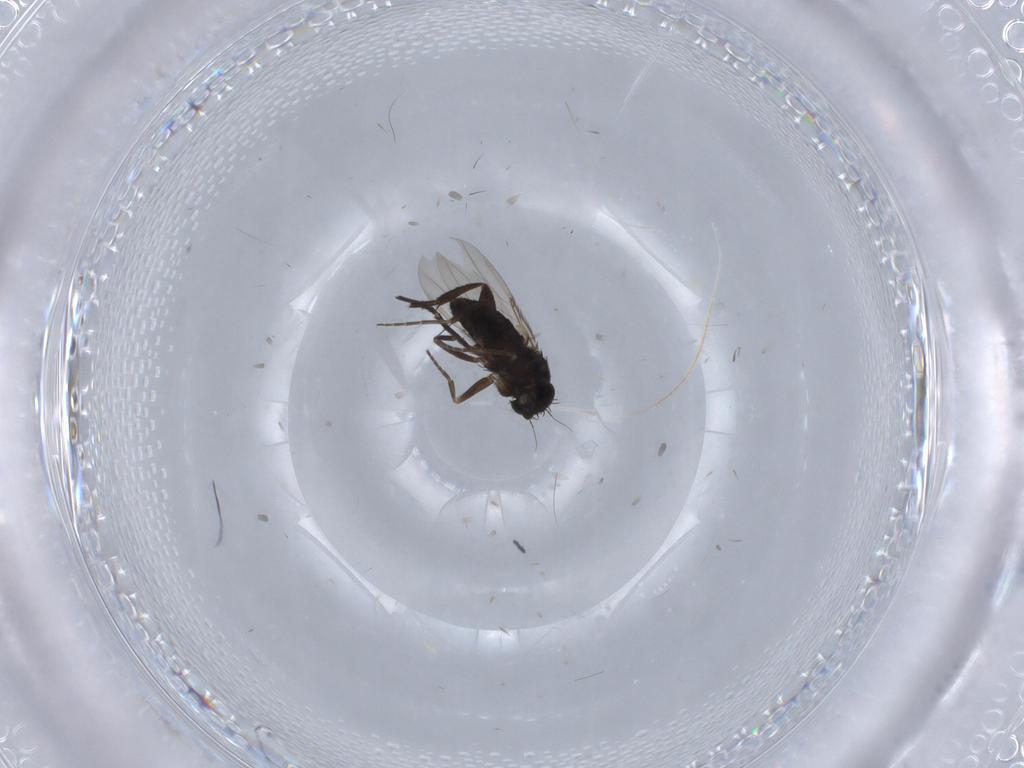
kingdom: Animalia
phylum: Arthropoda
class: Insecta
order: Diptera
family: Phoridae
